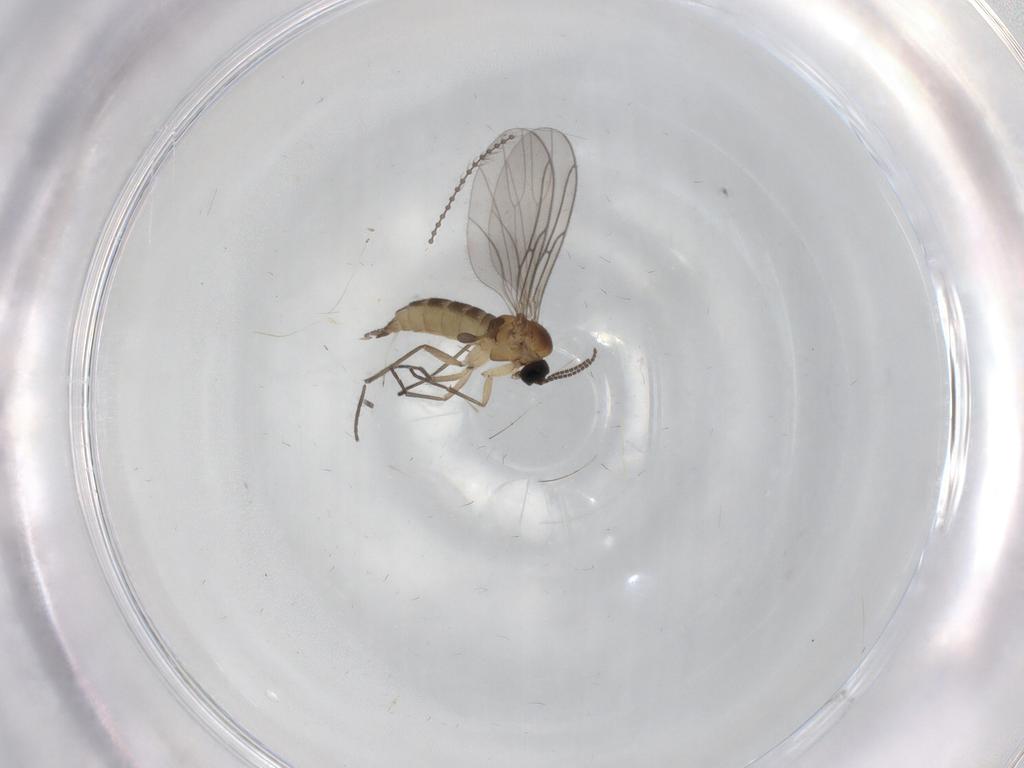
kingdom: Animalia
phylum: Arthropoda
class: Insecta
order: Diptera
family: Sciaridae
